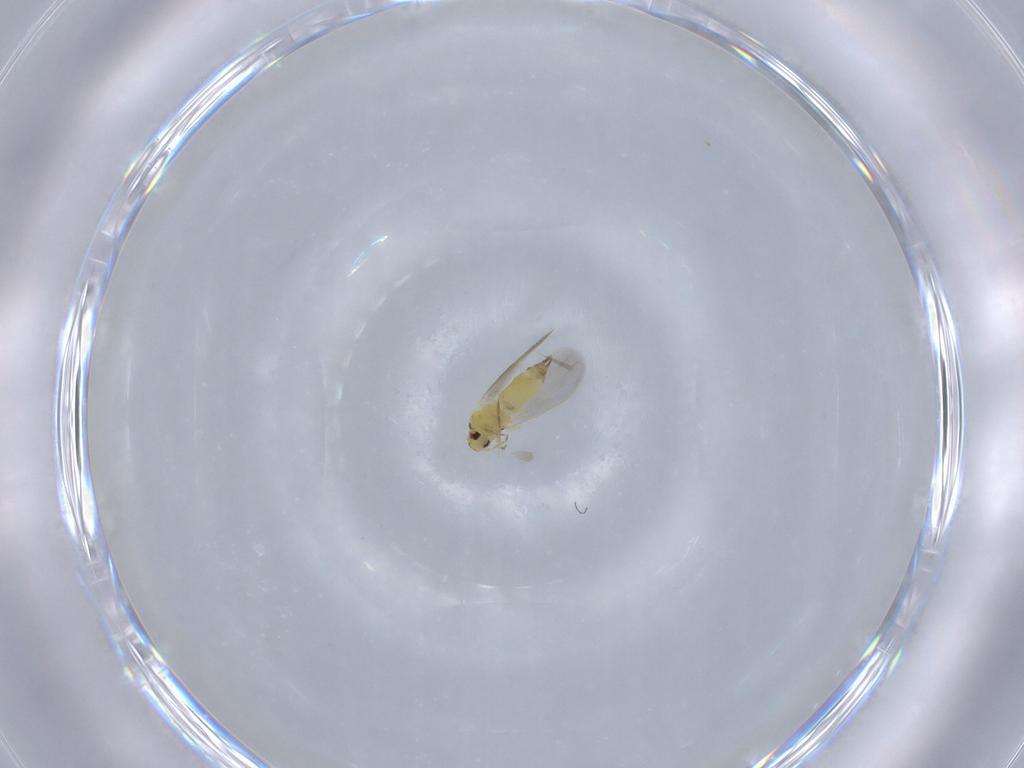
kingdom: Animalia
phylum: Arthropoda
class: Insecta
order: Hemiptera
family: Aleyrodidae
